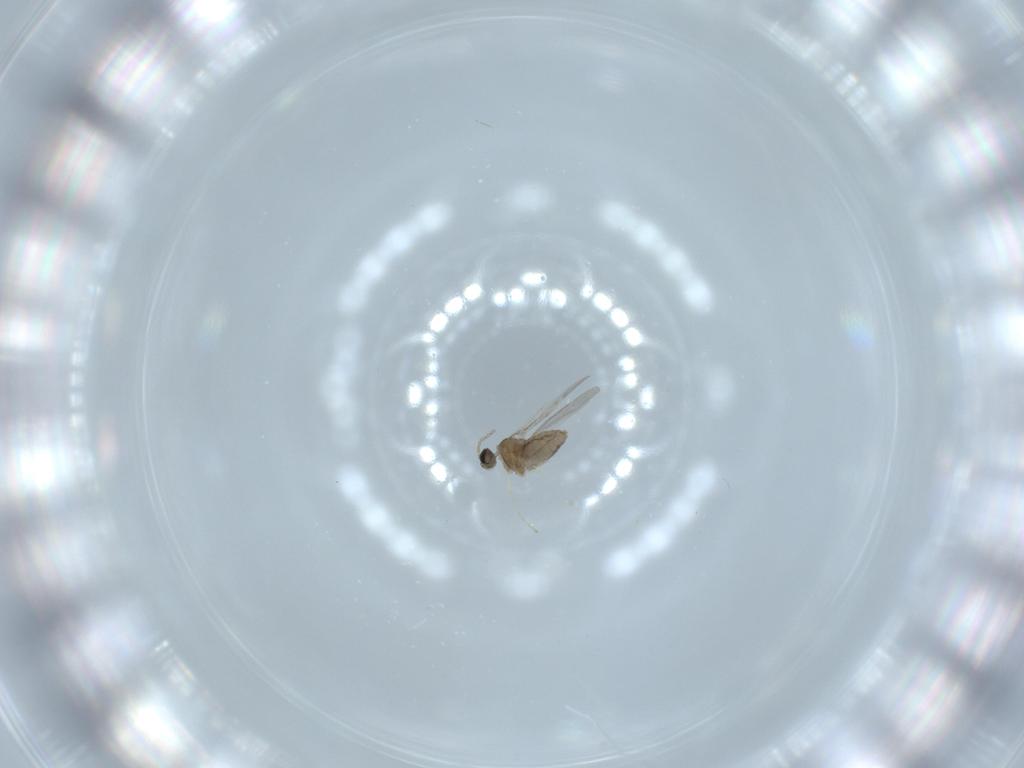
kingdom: Animalia
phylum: Arthropoda
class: Insecta
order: Diptera
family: Cecidomyiidae
